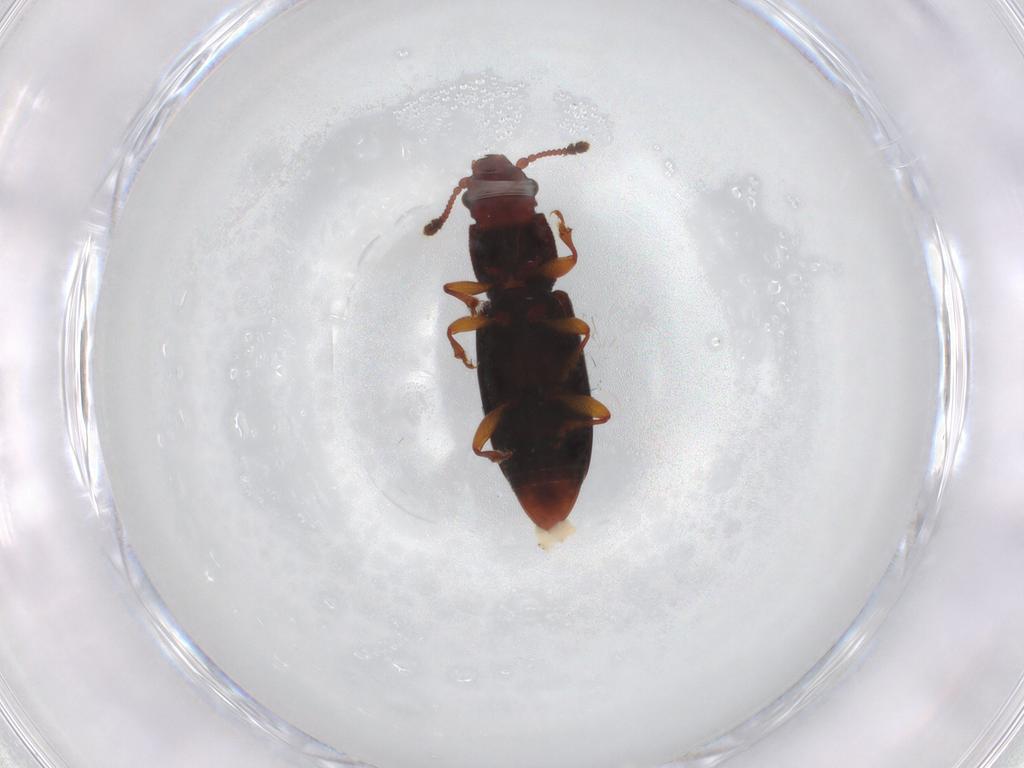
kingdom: Animalia
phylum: Arthropoda
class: Insecta
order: Coleoptera
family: Monotomidae
